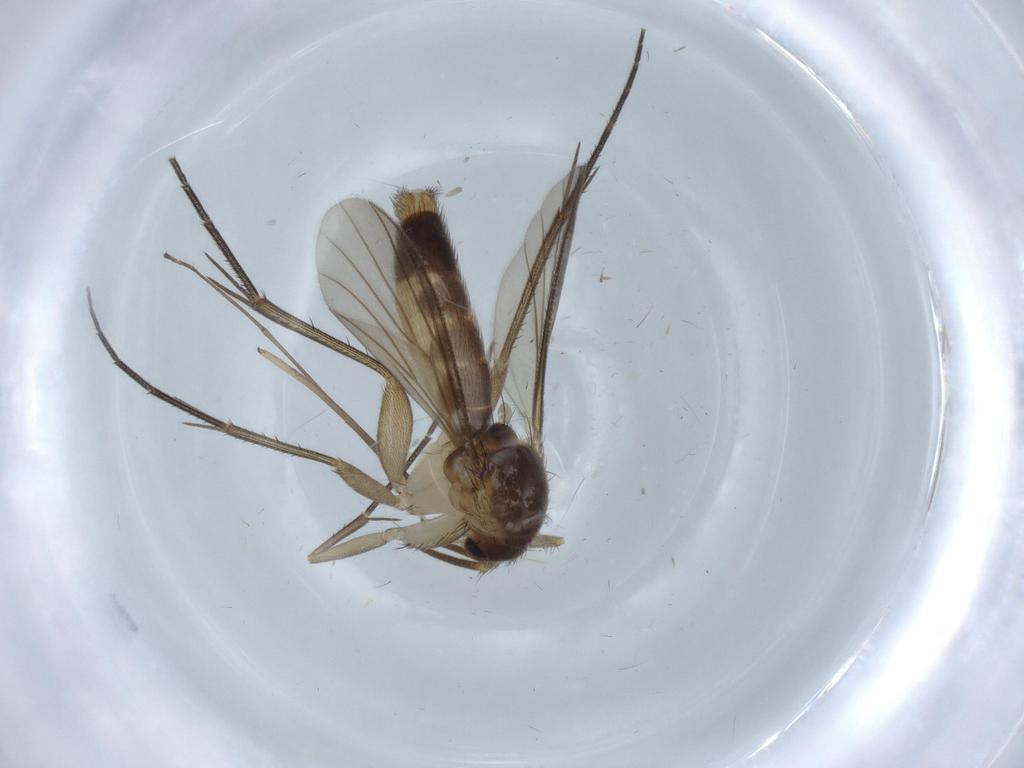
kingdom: Animalia
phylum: Arthropoda
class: Insecta
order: Diptera
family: Limoniidae
